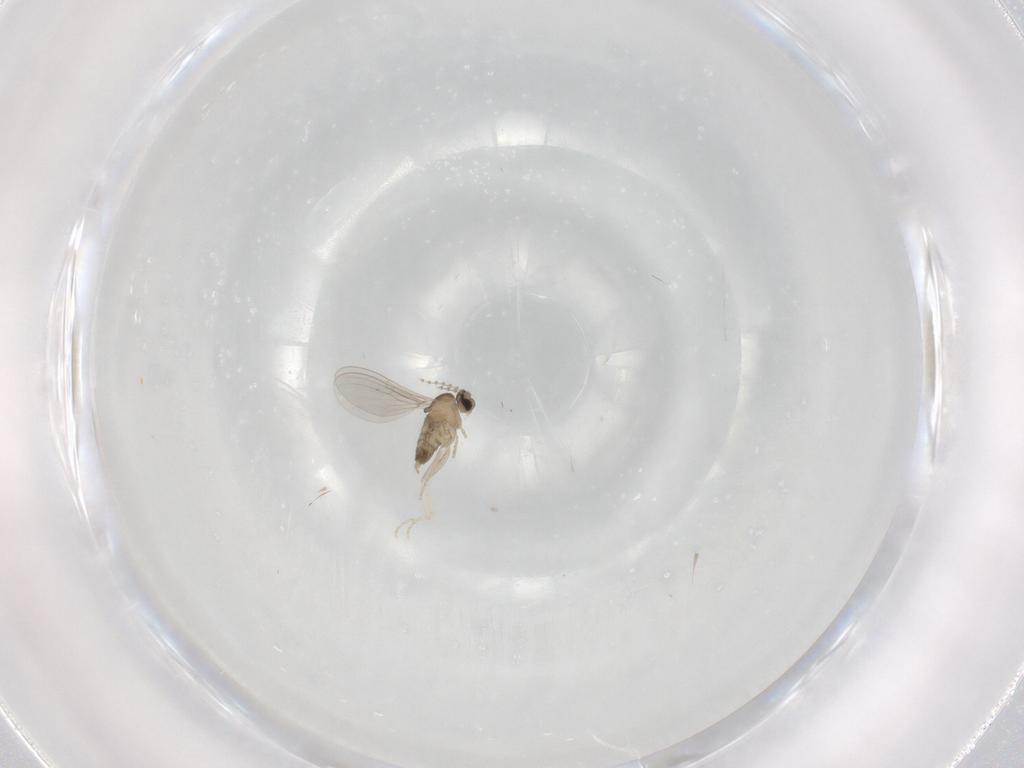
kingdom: Animalia
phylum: Arthropoda
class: Insecta
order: Diptera
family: Cecidomyiidae
